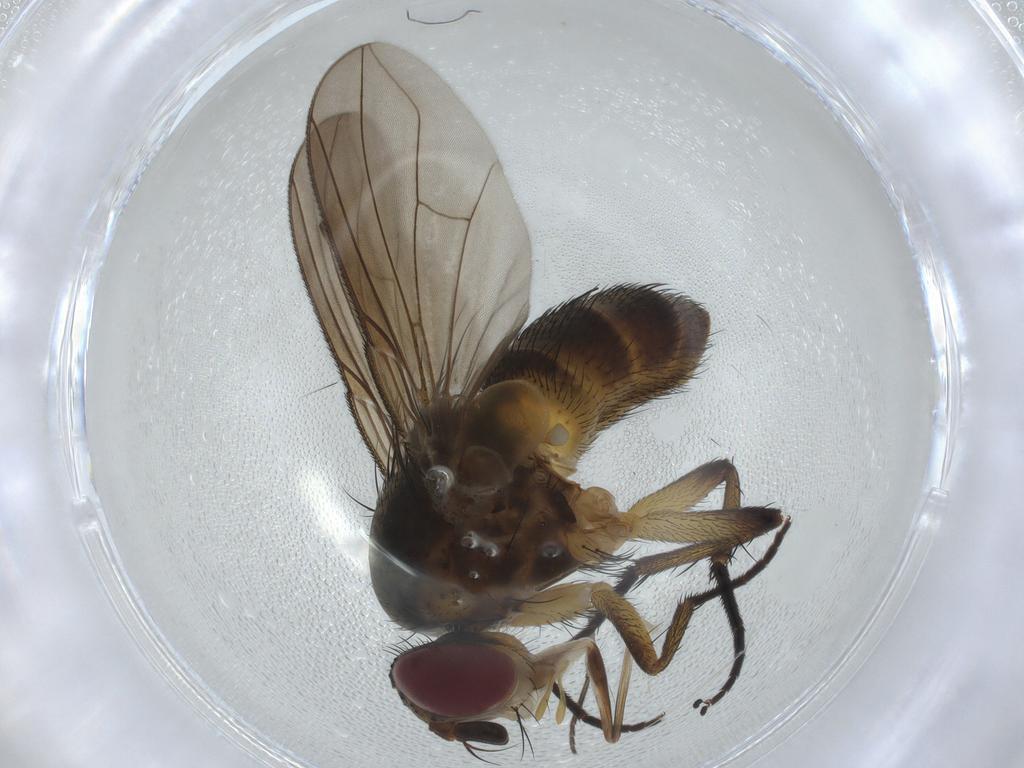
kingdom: Animalia
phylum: Arthropoda
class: Insecta
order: Diptera
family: Tachinidae
